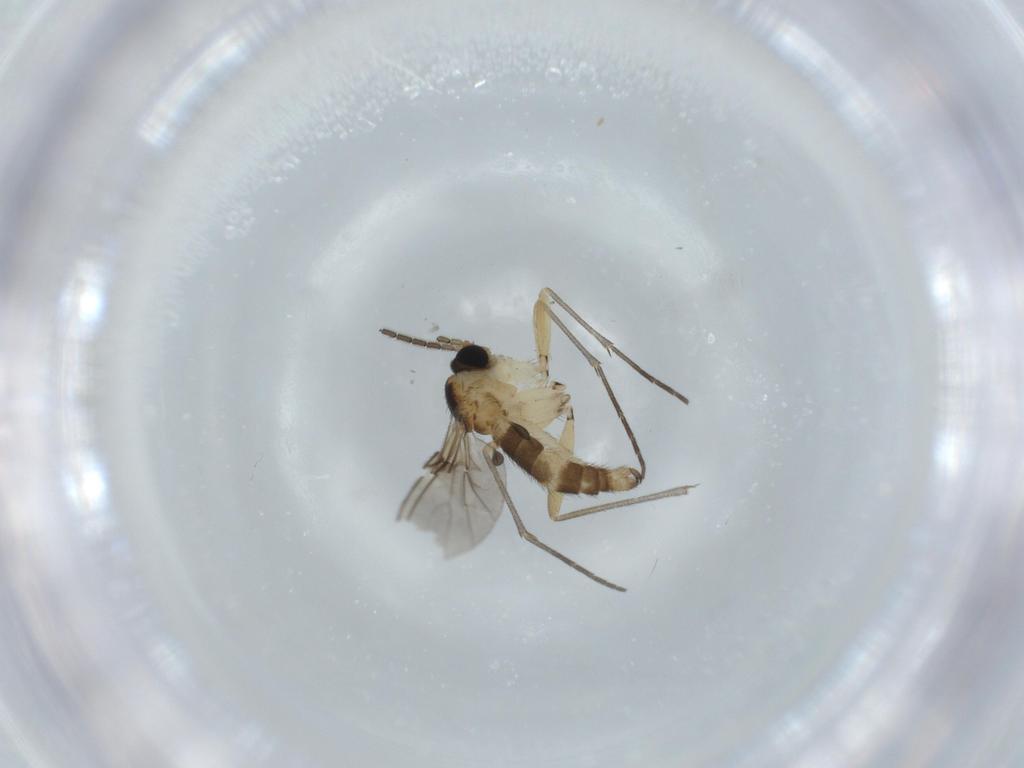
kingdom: Animalia
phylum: Arthropoda
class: Insecta
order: Diptera
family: Sciaridae
